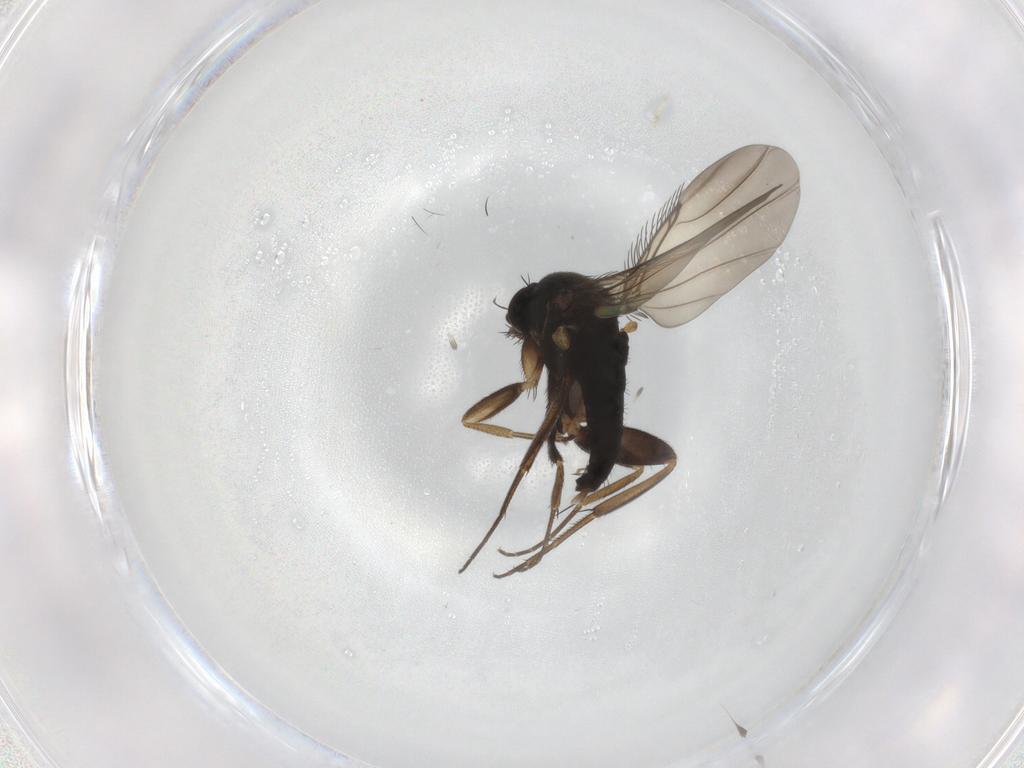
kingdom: Animalia
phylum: Arthropoda
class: Insecta
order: Diptera
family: Phoridae
